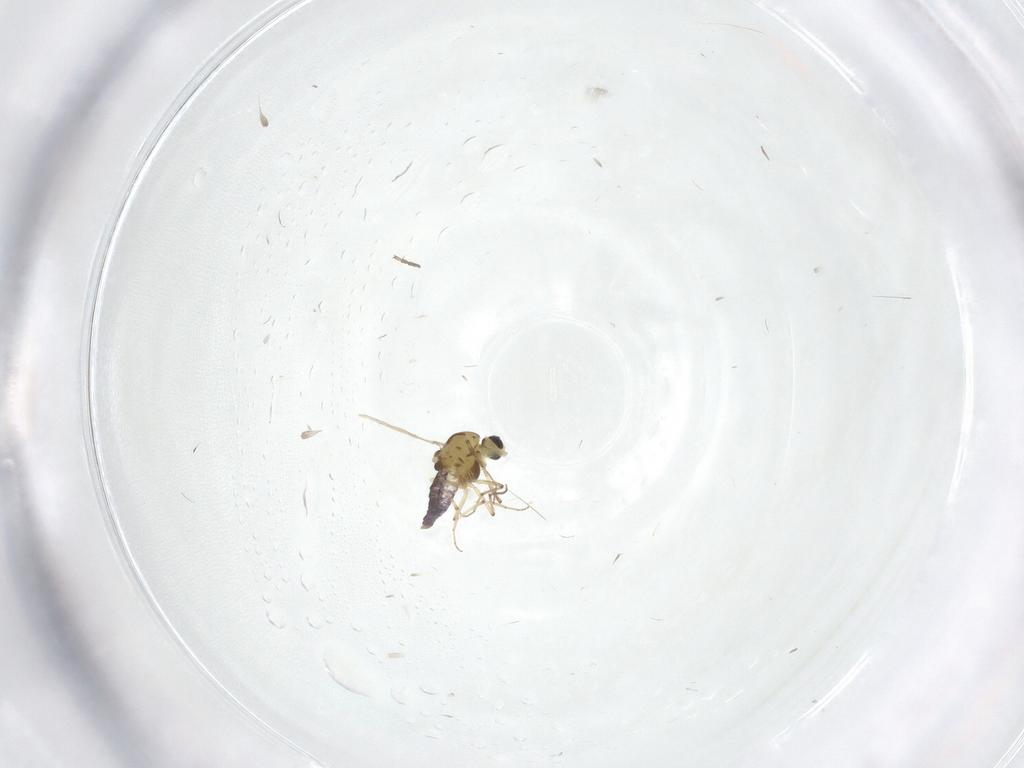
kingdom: Animalia
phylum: Arthropoda
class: Insecta
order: Diptera
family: Chironomidae
